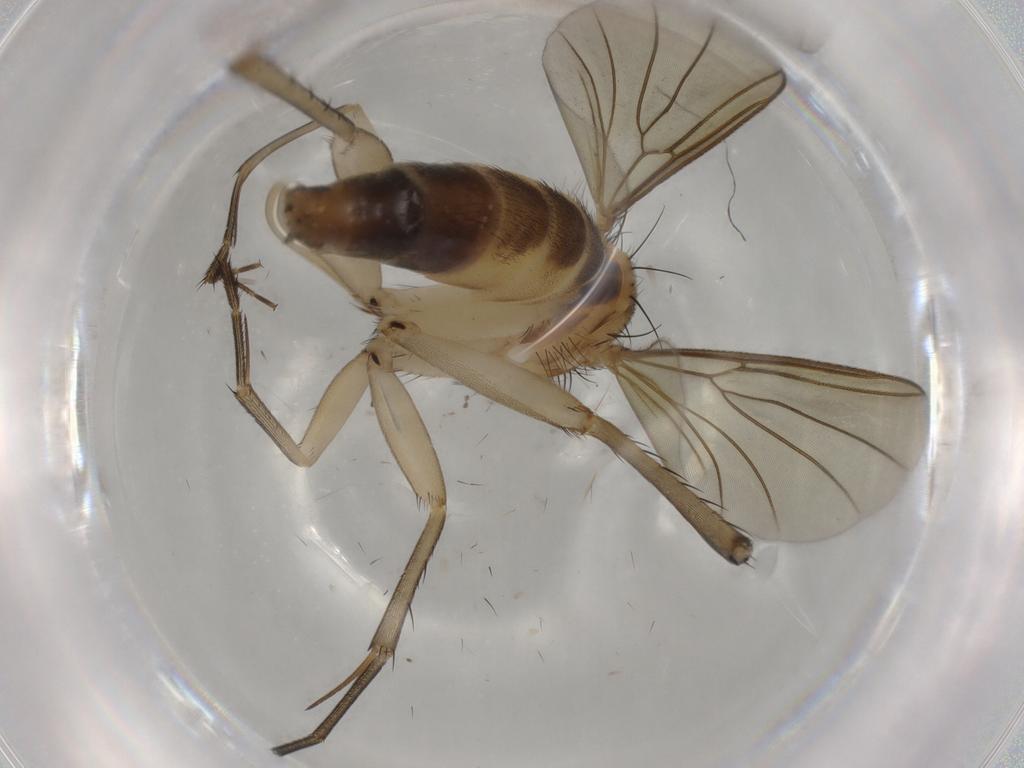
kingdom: Animalia
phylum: Arthropoda
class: Insecta
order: Diptera
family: Mycetophilidae
